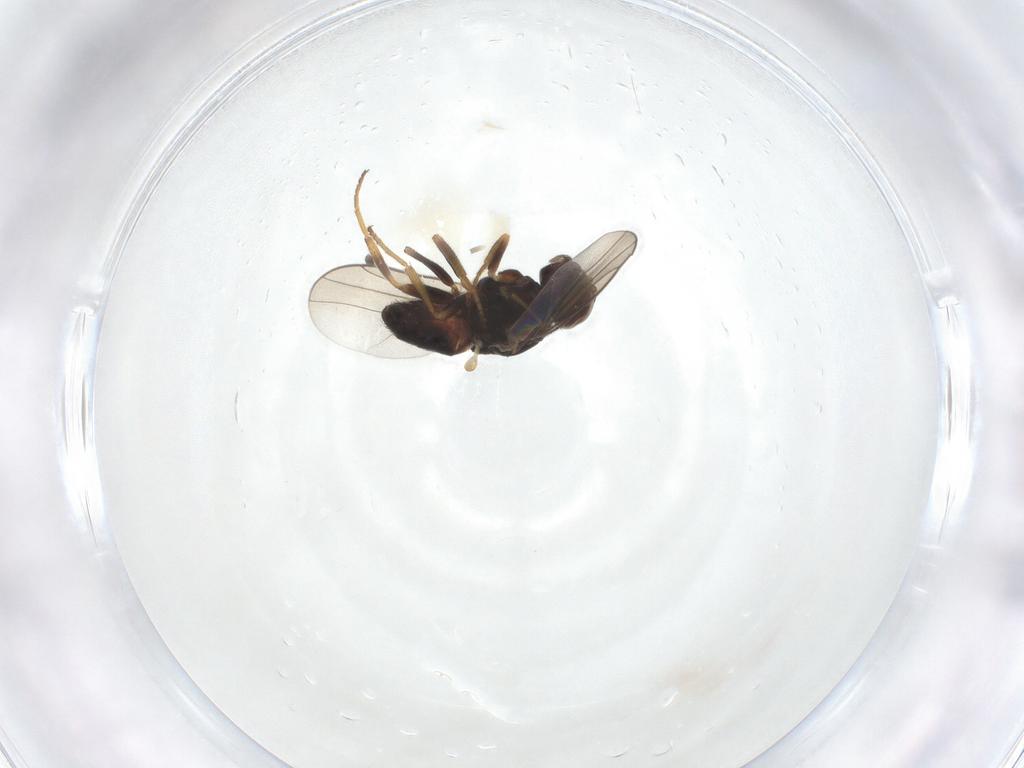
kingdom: Animalia
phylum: Arthropoda
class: Insecta
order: Diptera
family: Chloropidae
